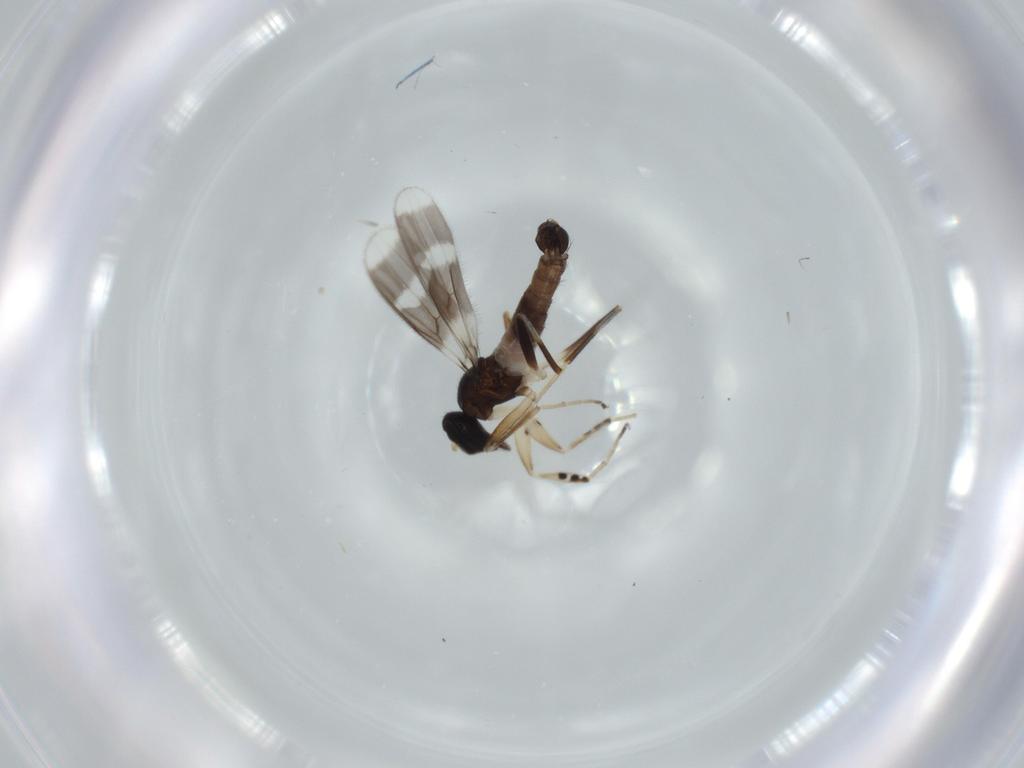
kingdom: Animalia
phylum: Arthropoda
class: Insecta
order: Diptera
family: Hybotidae
